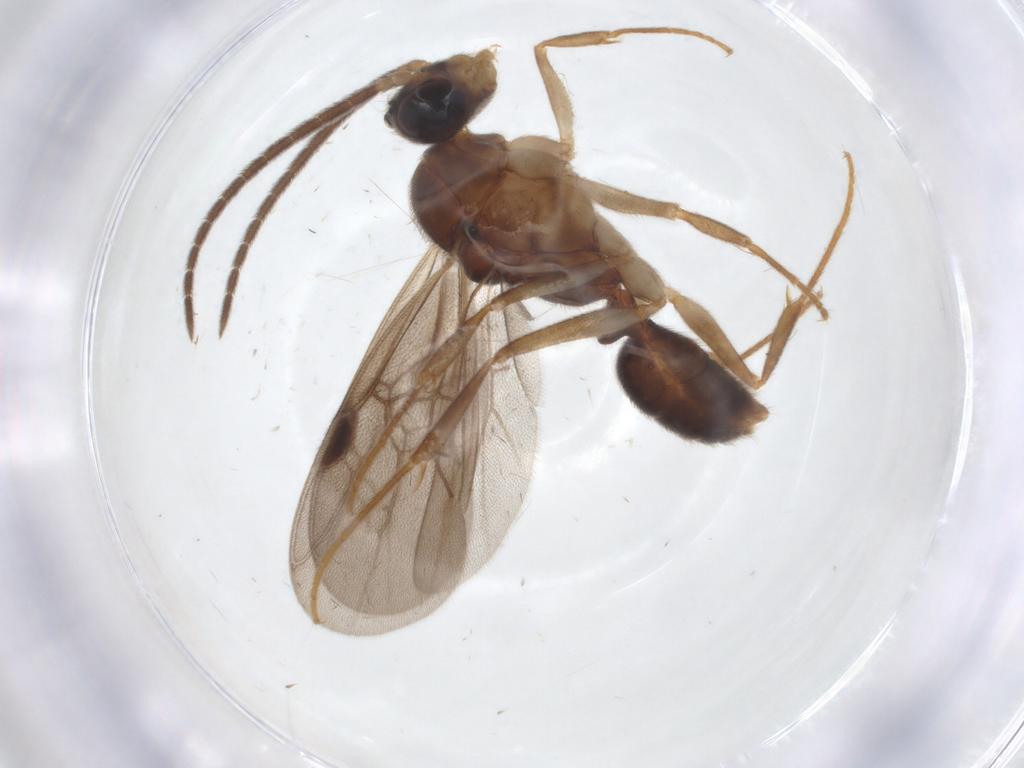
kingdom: Animalia
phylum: Arthropoda
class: Insecta
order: Hymenoptera
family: Formicidae
